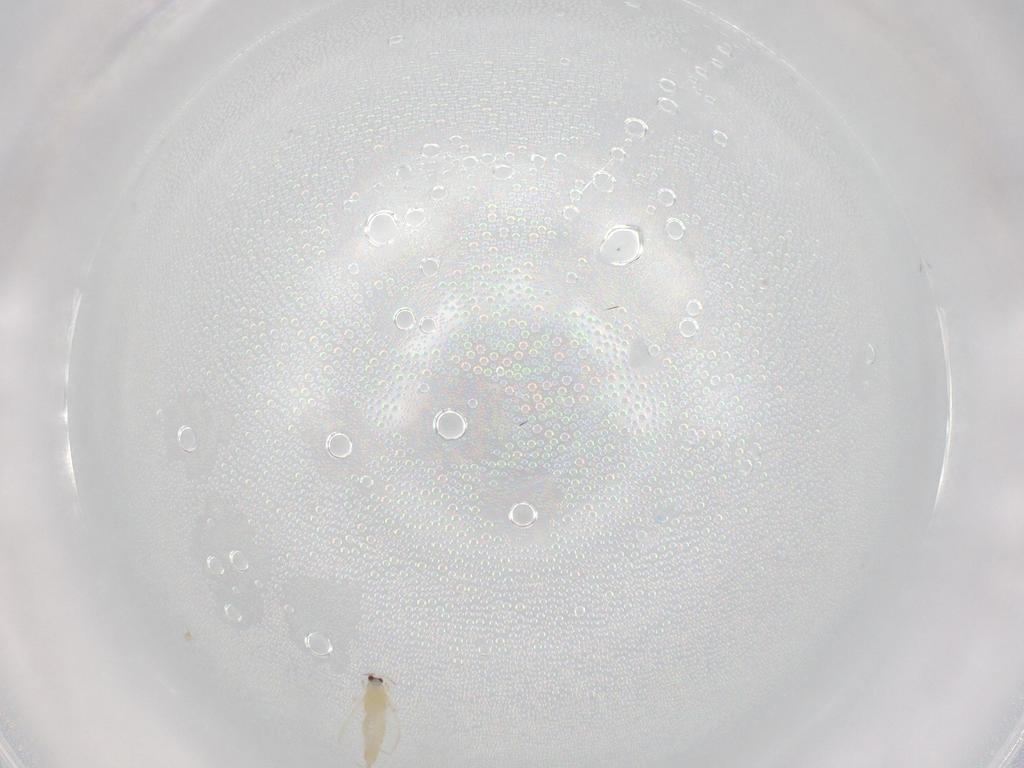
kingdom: Animalia
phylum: Arthropoda
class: Insecta
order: Thysanoptera
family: Thripidae
